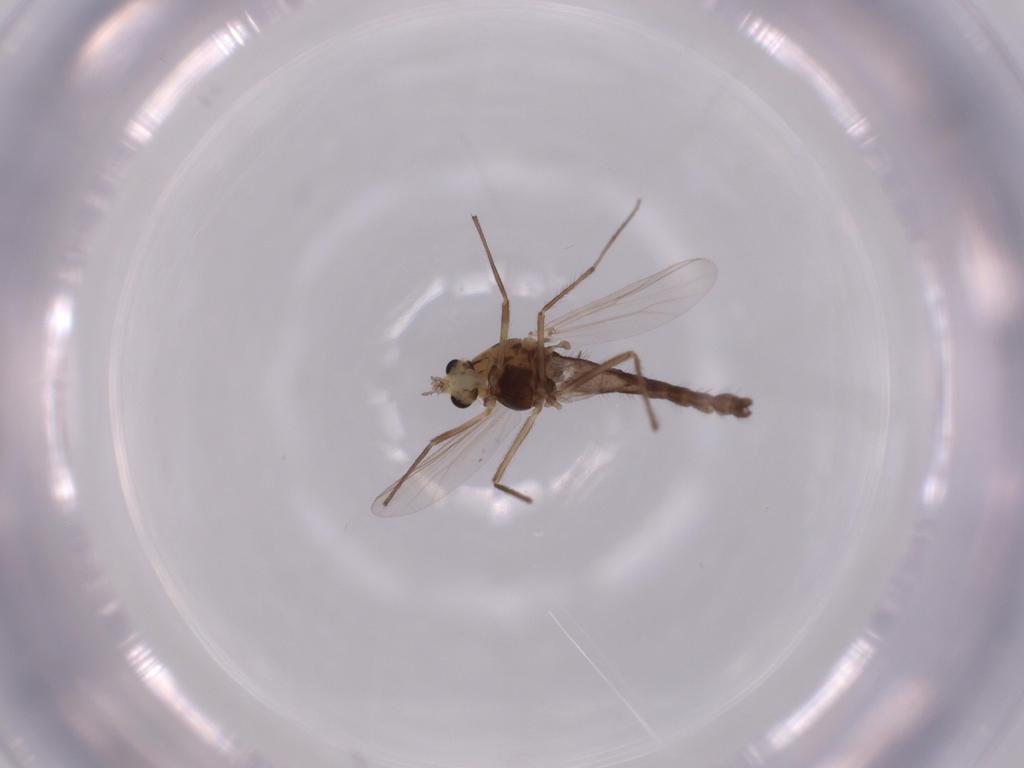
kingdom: Animalia
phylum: Arthropoda
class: Insecta
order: Diptera
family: Chironomidae
